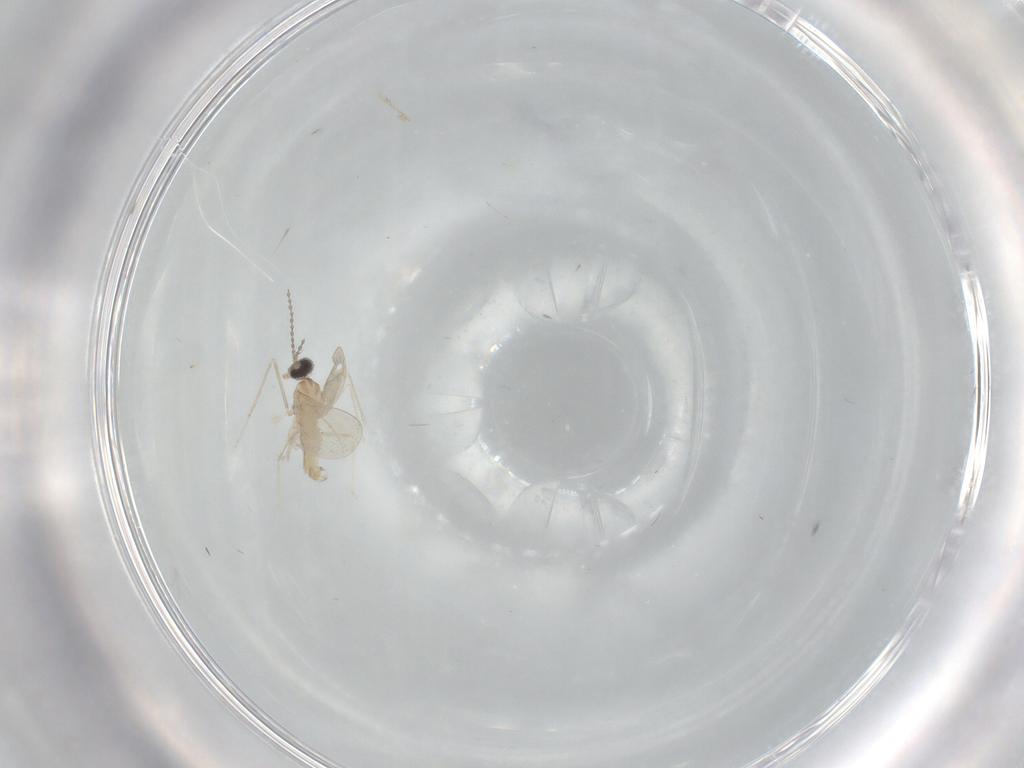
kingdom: Animalia
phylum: Arthropoda
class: Insecta
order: Diptera
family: Cecidomyiidae
